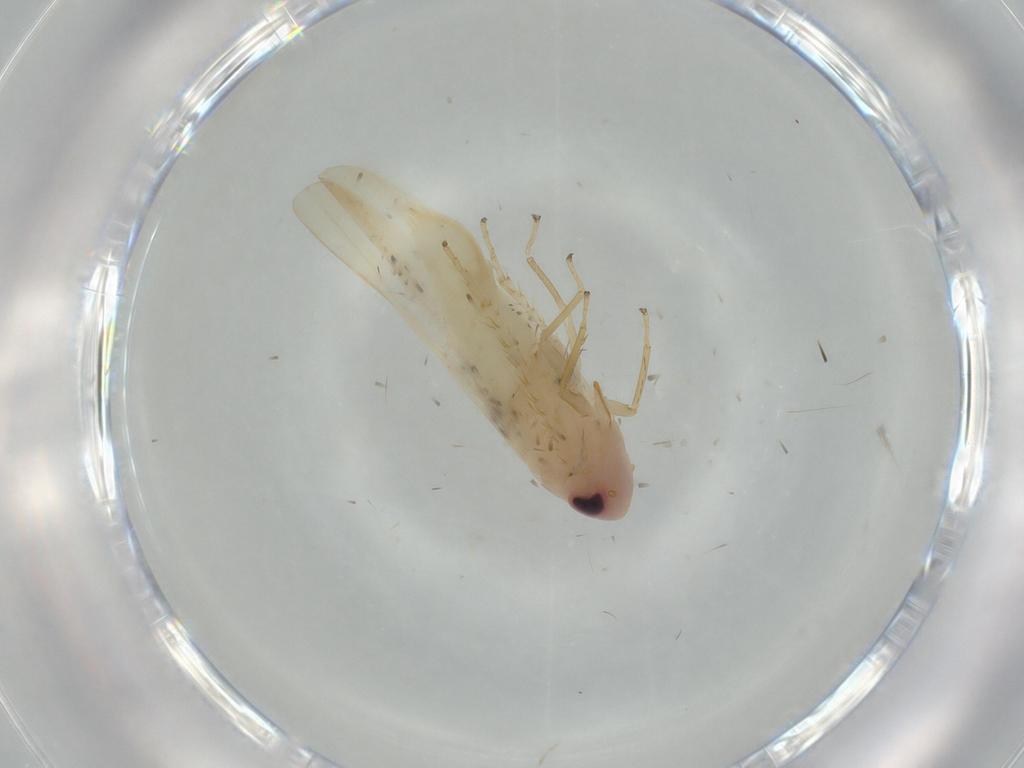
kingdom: Animalia
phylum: Arthropoda
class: Insecta
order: Hemiptera
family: Cicadellidae
